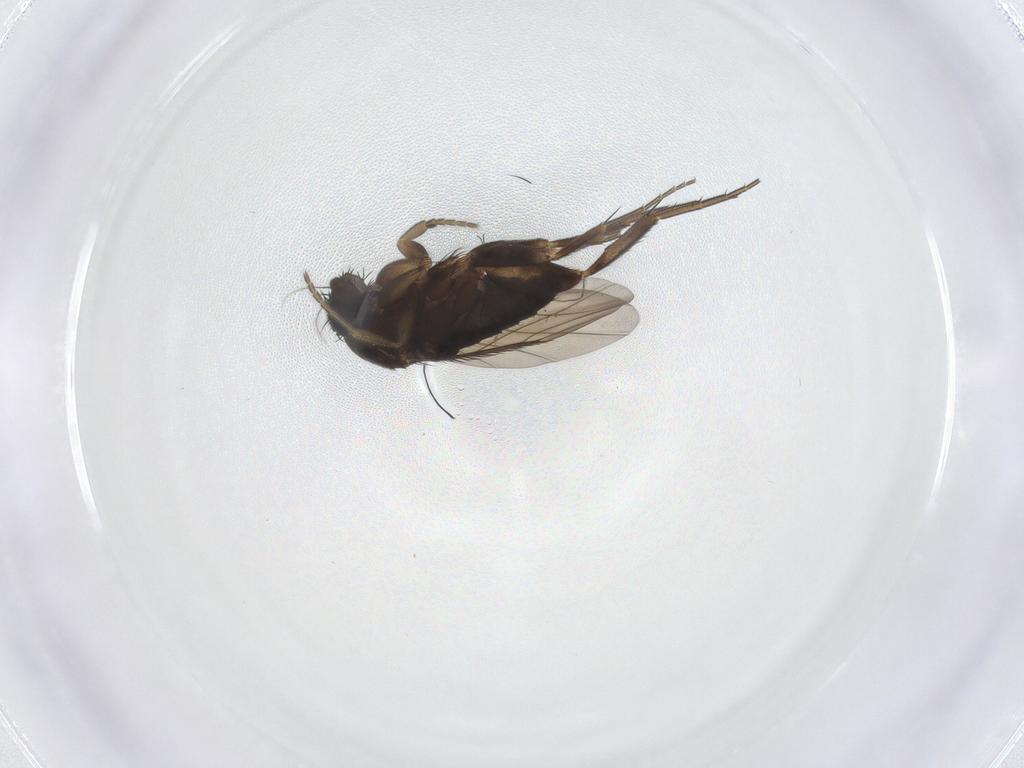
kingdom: Animalia
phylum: Arthropoda
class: Insecta
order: Diptera
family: Phoridae
